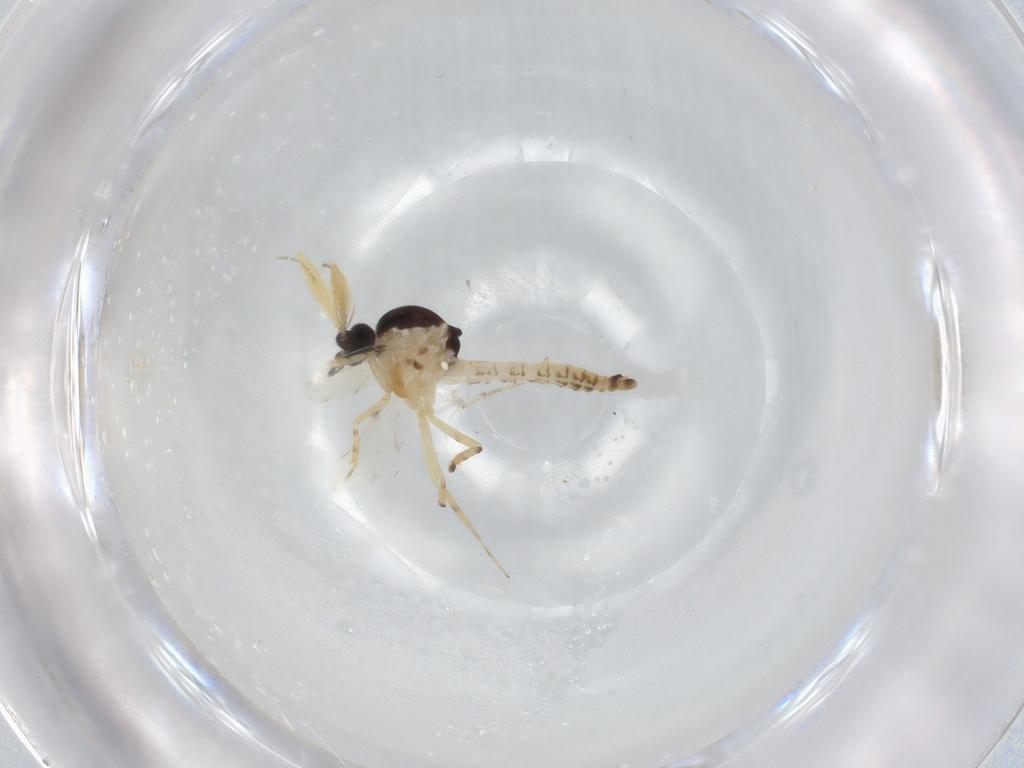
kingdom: Animalia
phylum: Arthropoda
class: Insecta
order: Diptera
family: Ceratopogonidae
